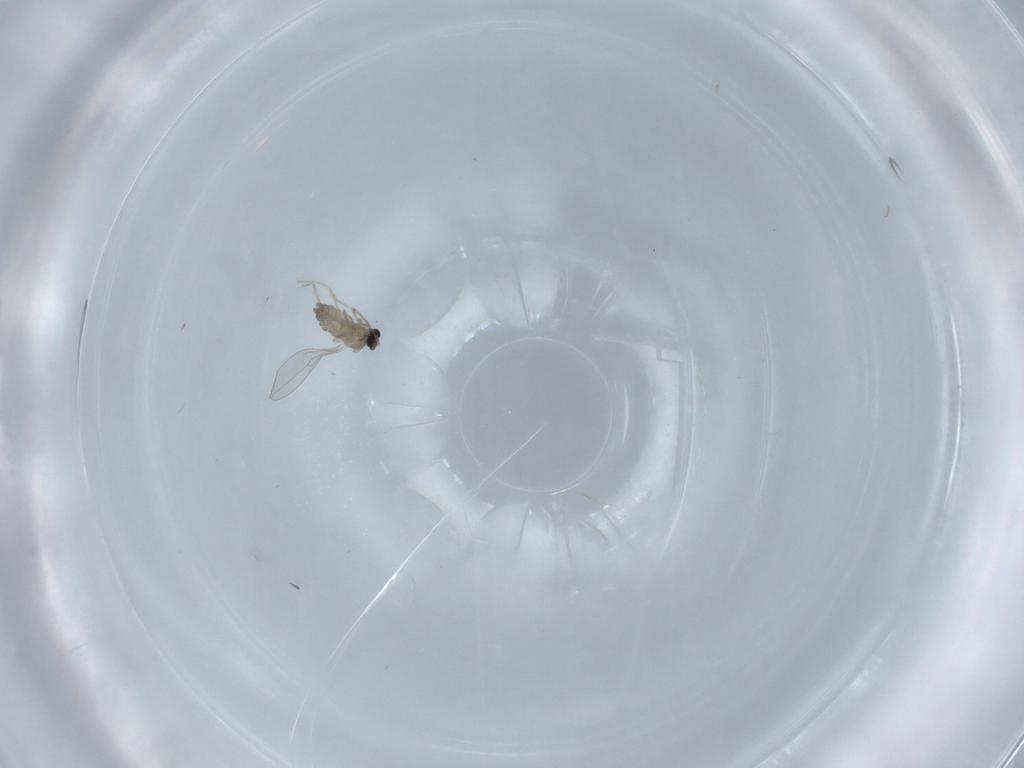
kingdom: Animalia
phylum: Arthropoda
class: Insecta
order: Diptera
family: Cecidomyiidae
